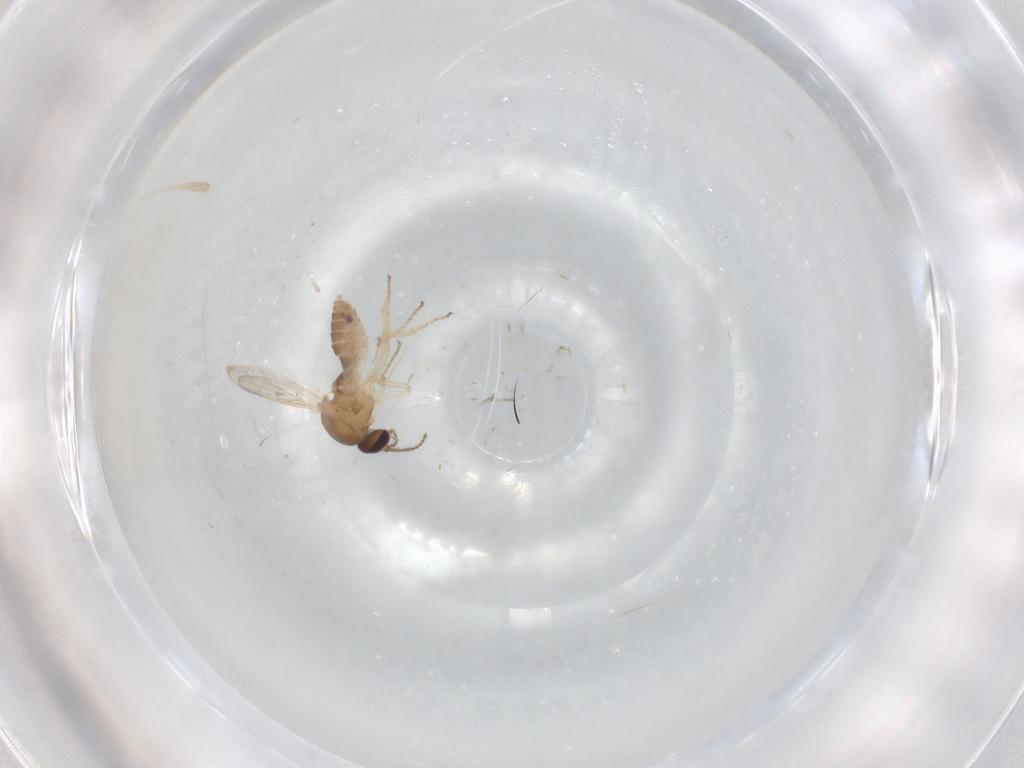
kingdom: Animalia
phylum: Arthropoda
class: Insecta
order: Diptera
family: Ceratopogonidae
